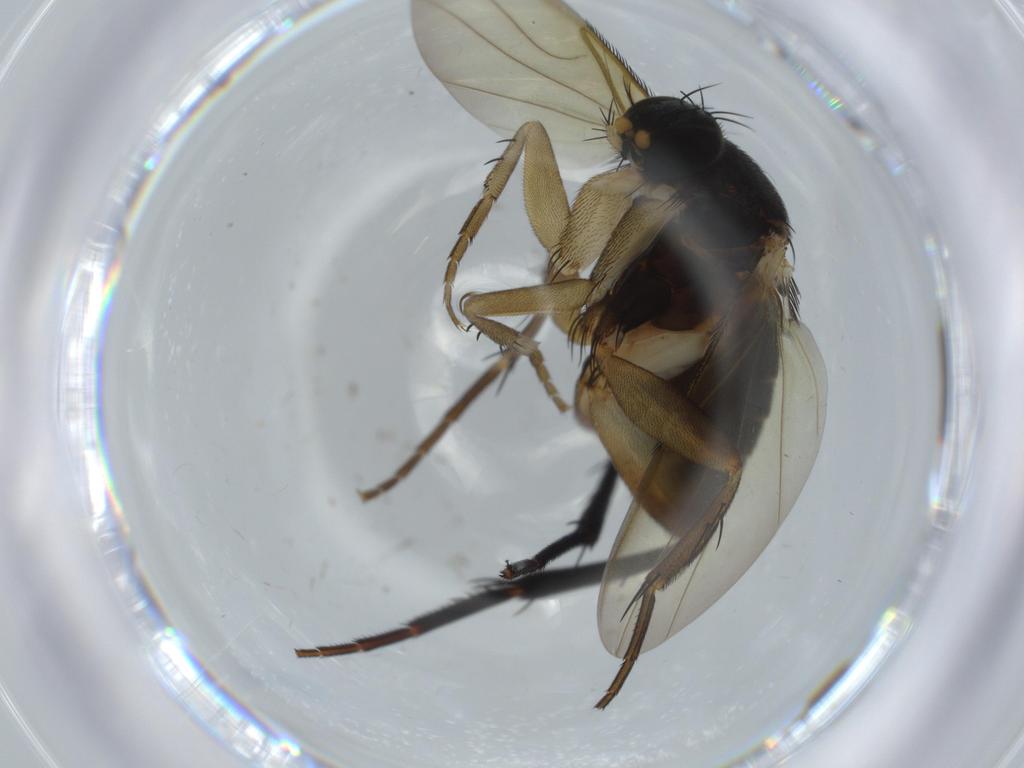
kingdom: Animalia
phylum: Arthropoda
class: Insecta
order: Diptera
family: Phoridae
